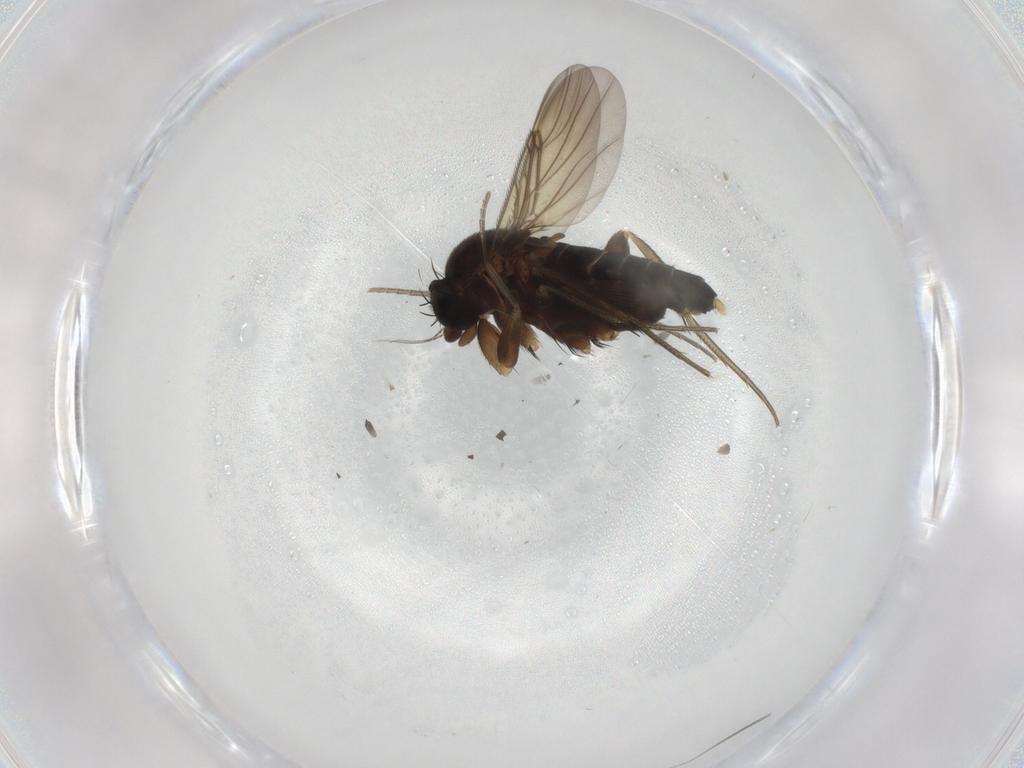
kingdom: Animalia
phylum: Arthropoda
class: Insecta
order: Diptera
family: Phoridae
